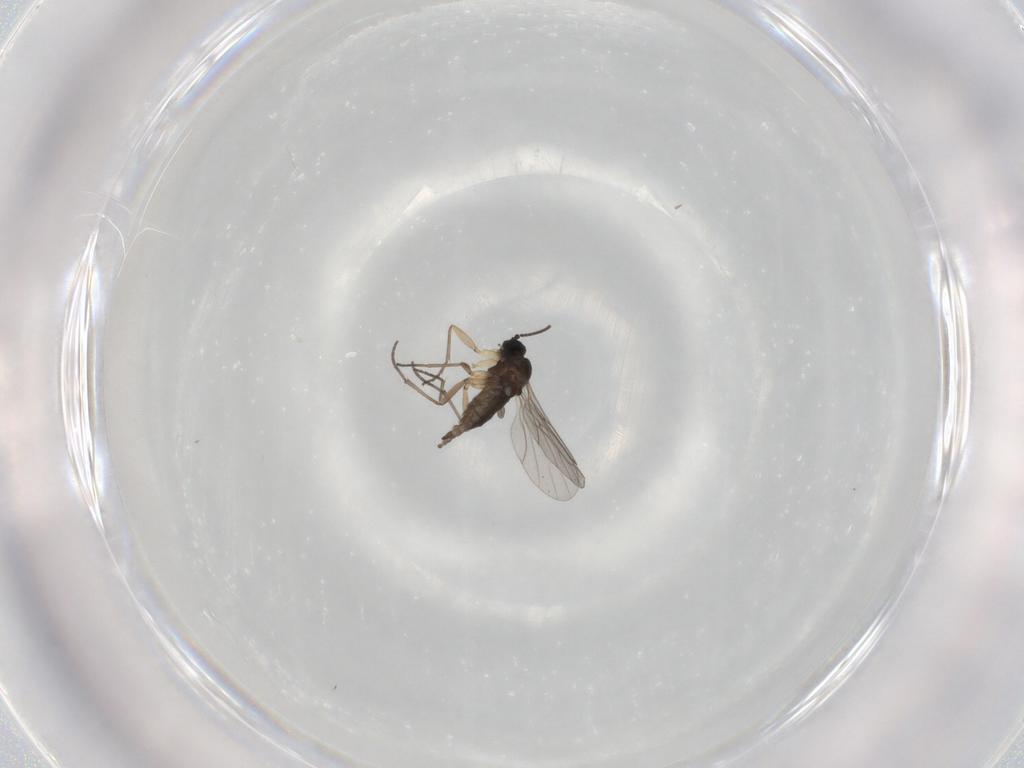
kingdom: Animalia
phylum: Arthropoda
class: Insecta
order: Diptera
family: Sciaridae
